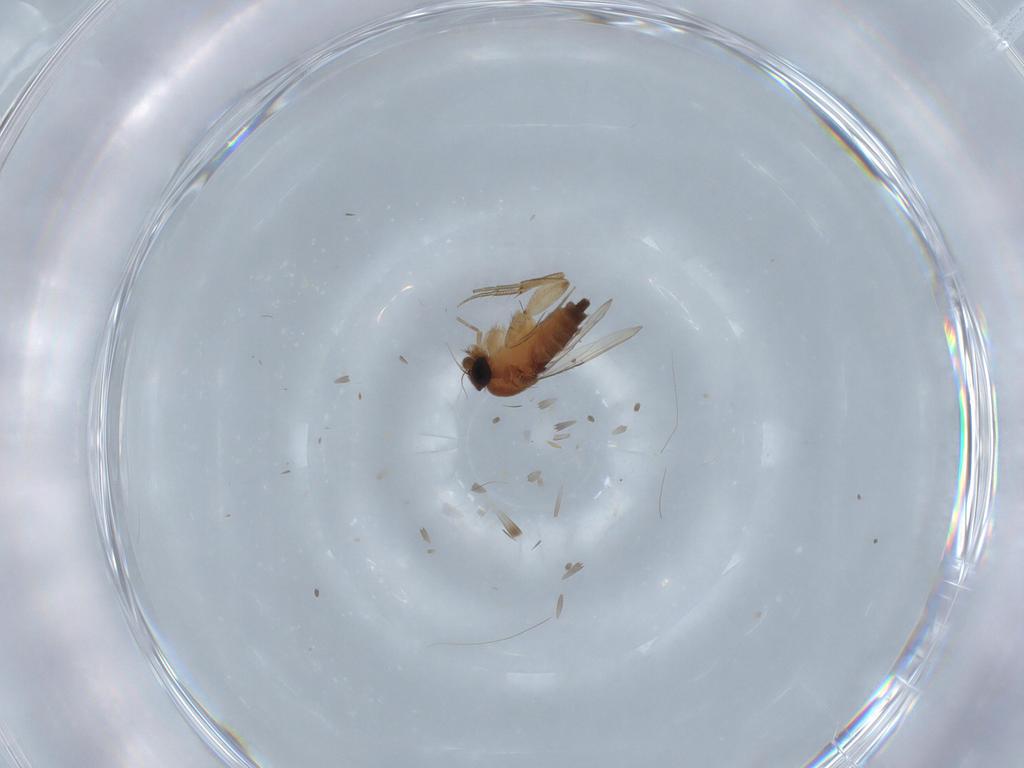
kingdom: Animalia
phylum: Arthropoda
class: Insecta
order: Diptera
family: Phoridae
